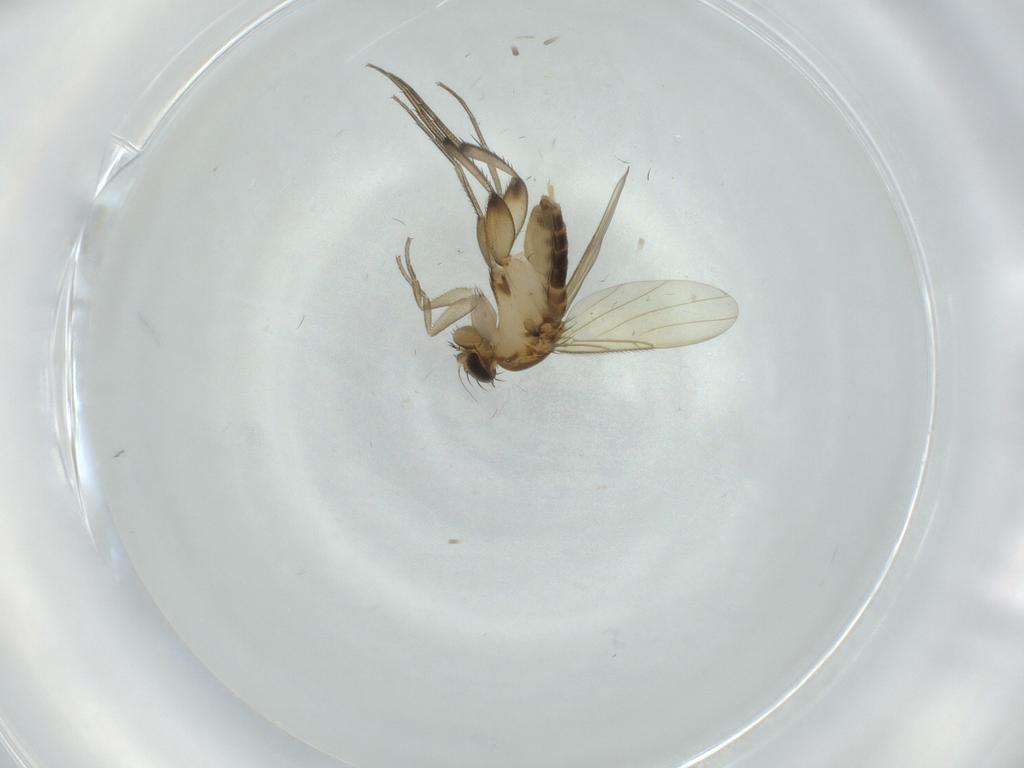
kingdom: Animalia
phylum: Arthropoda
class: Insecta
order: Diptera
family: Phoridae
